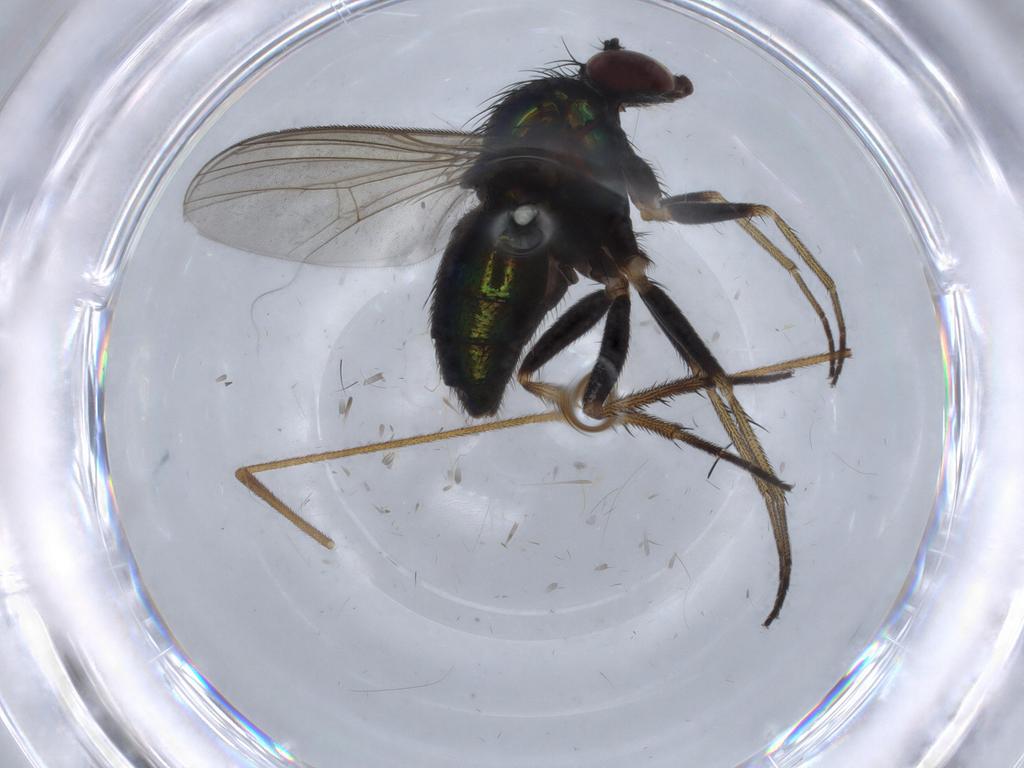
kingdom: Animalia
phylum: Arthropoda
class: Insecta
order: Diptera
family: Dolichopodidae
